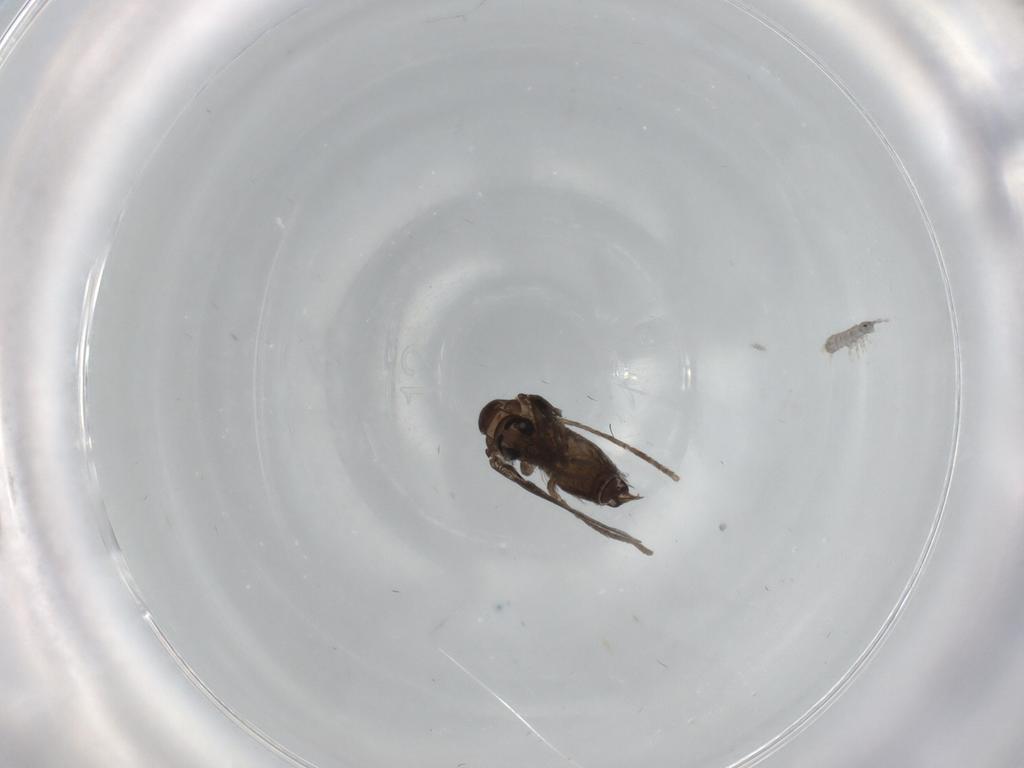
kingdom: Animalia
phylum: Arthropoda
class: Insecta
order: Diptera
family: Psychodidae
